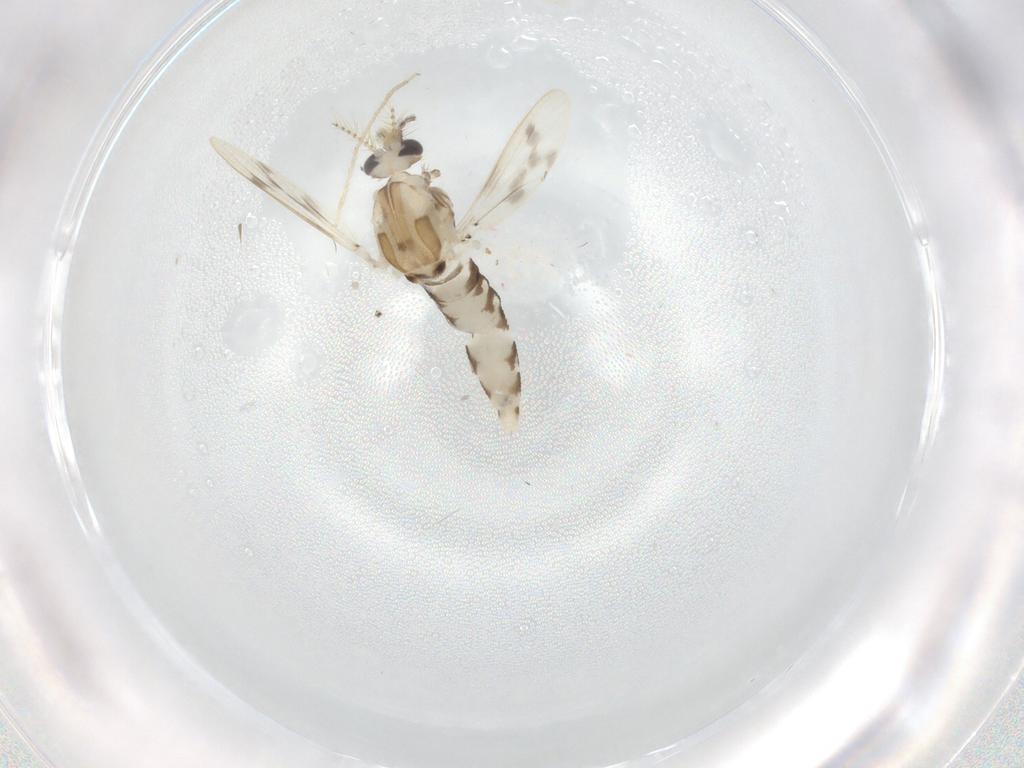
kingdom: Animalia
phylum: Arthropoda
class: Insecta
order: Diptera
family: Corethrellidae
